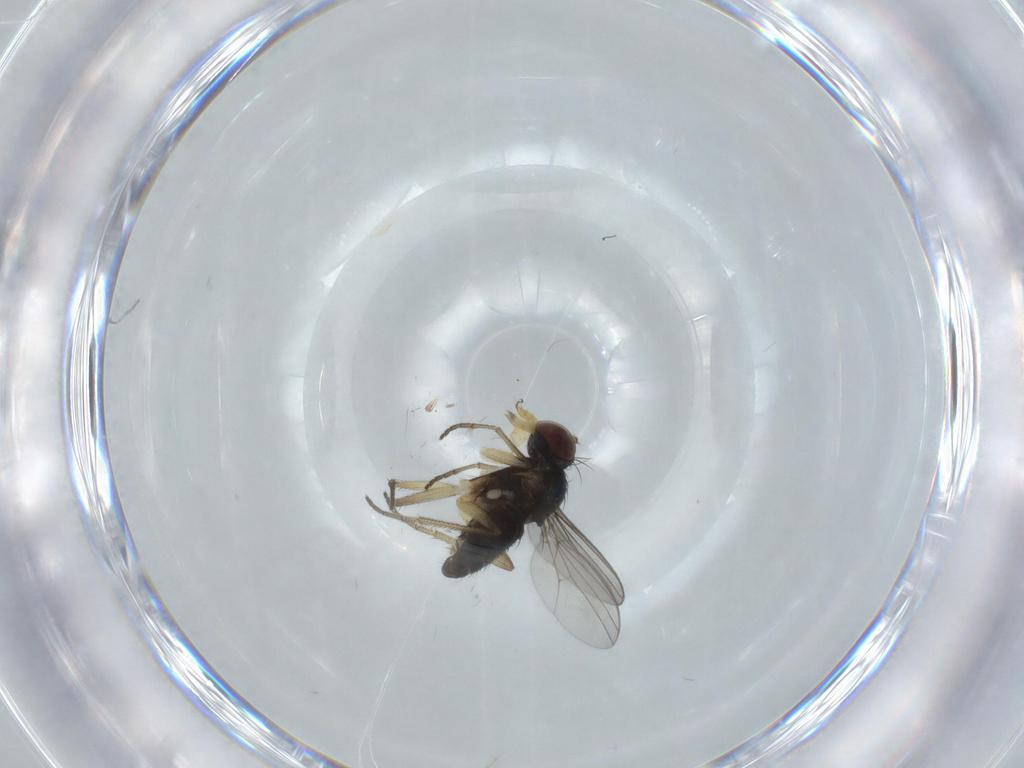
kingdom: Animalia
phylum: Arthropoda
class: Insecta
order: Diptera
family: Dolichopodidae
